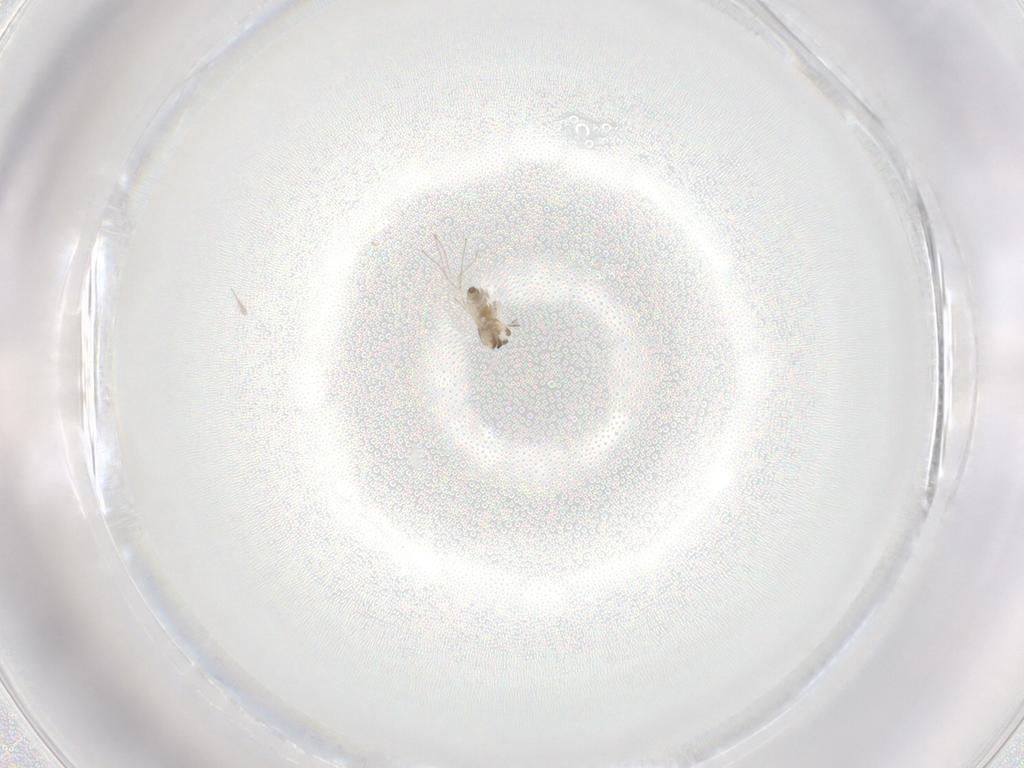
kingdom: Animalia
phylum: Arthropoda
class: Insecta
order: Diptera
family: Cecidomyiidae
